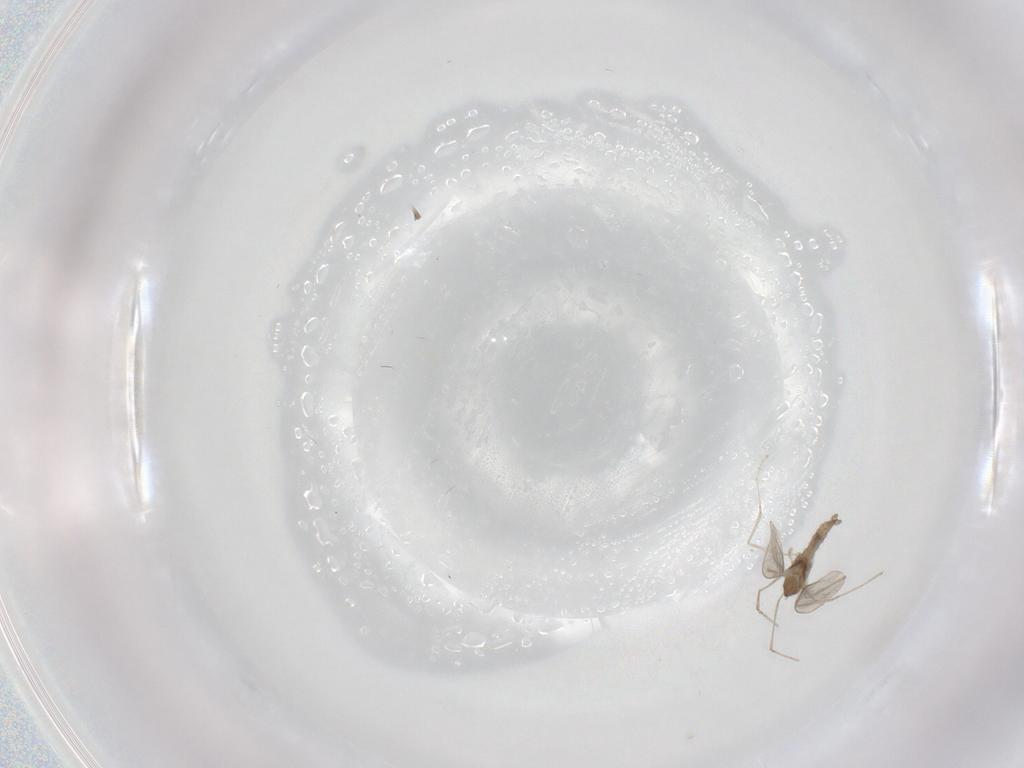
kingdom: Animalia
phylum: Arthropoda
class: Insecta
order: Diptera
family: Cecidomyiidae
